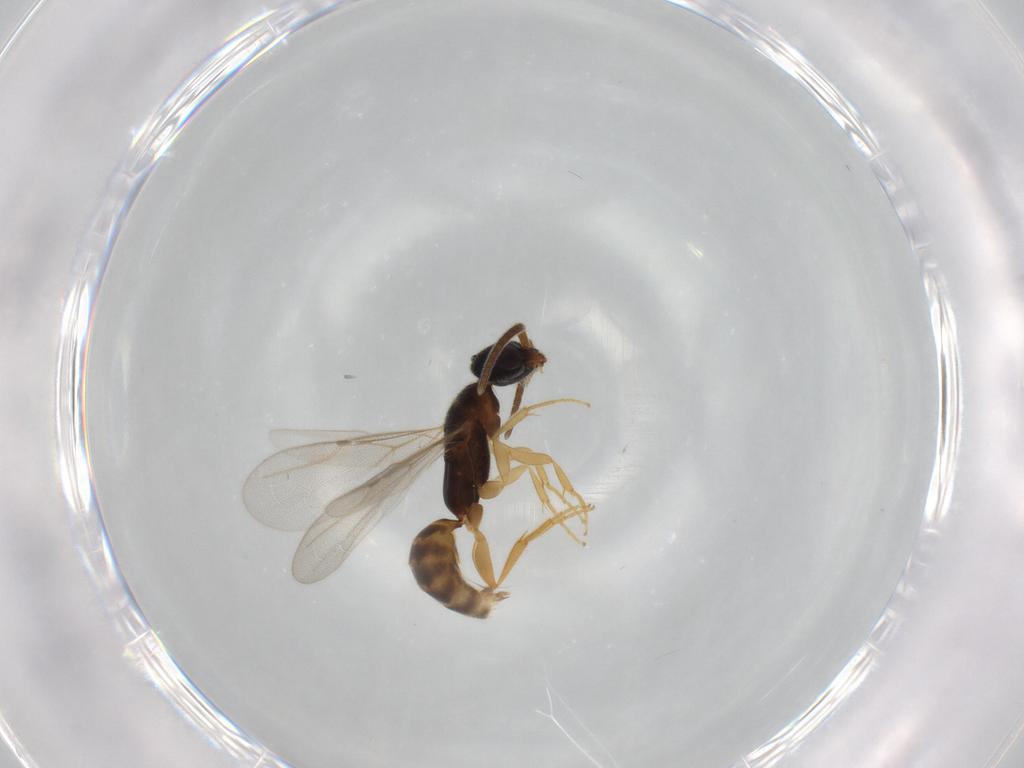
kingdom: Animalia
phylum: Arthropoda
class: Insecta
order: Hymenoptera
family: Bethylidae
